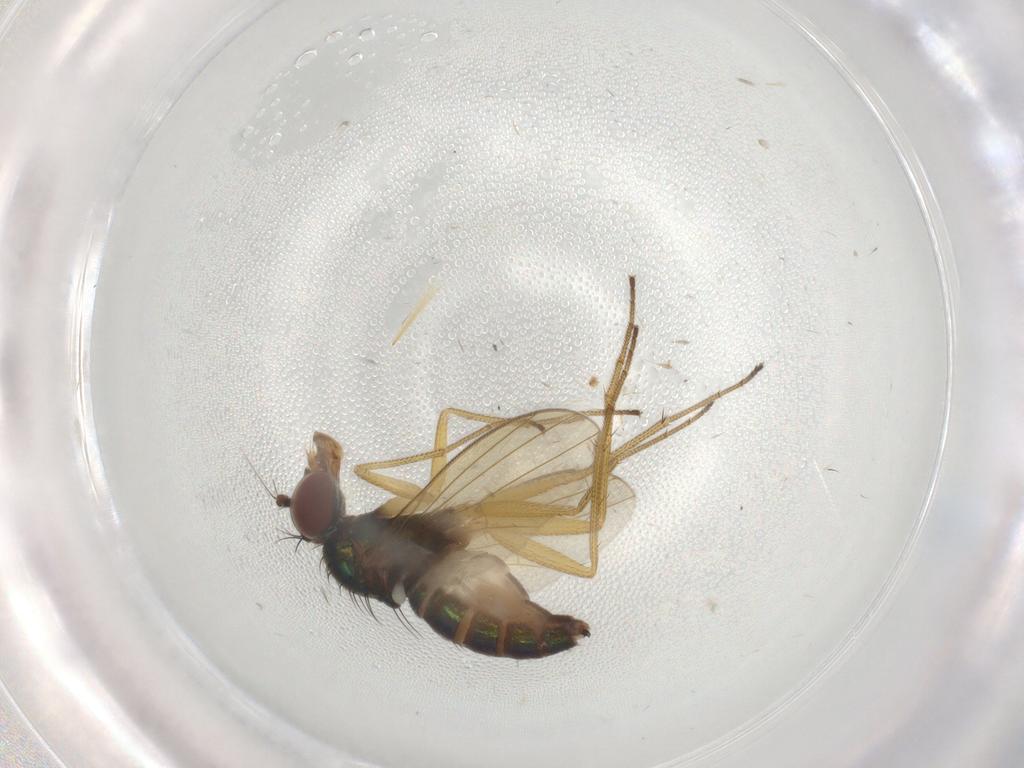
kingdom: Animalia
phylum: Arthropoda
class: Insecta
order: Diptera
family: Dolichopodidae
